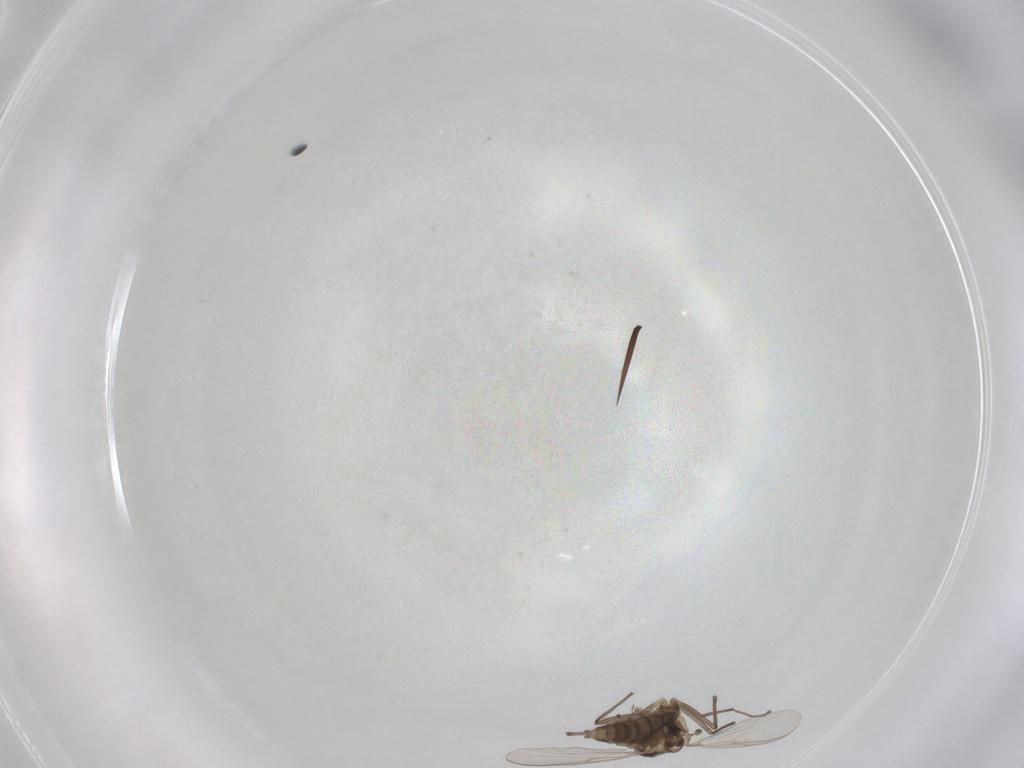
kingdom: Animalia
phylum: Arthropoda
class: Insecta
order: Diptera
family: Chironomidae
